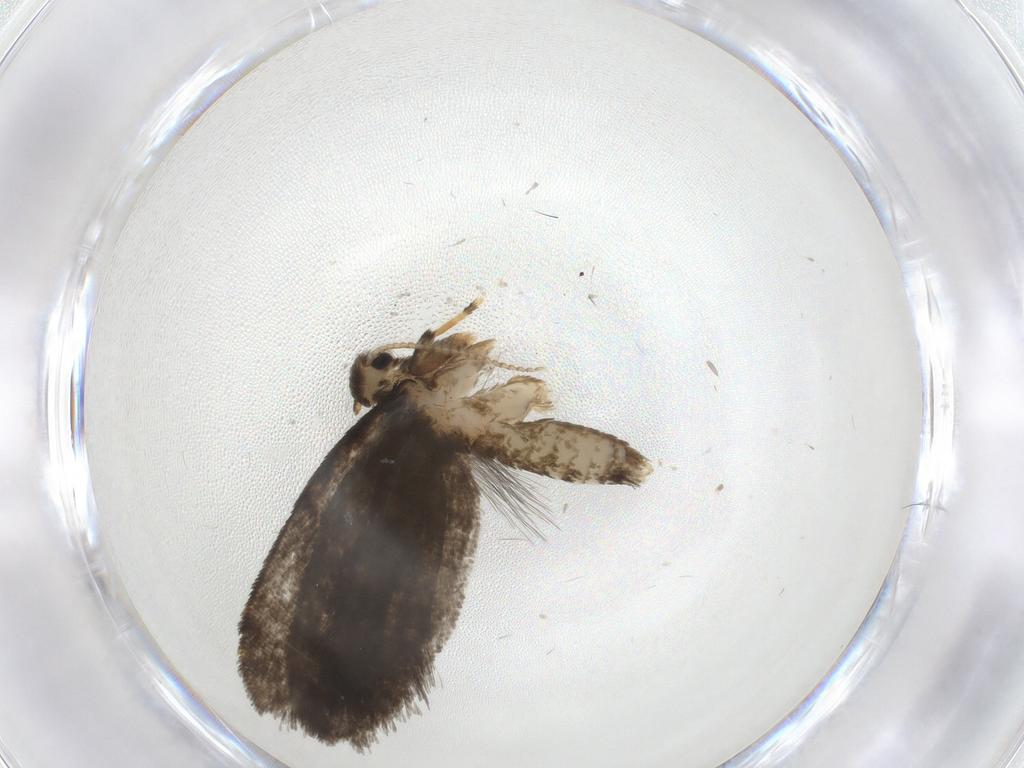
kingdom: Animalia
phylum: Arthropoda
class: Insecta
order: Lepidoptera
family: Psychidae
